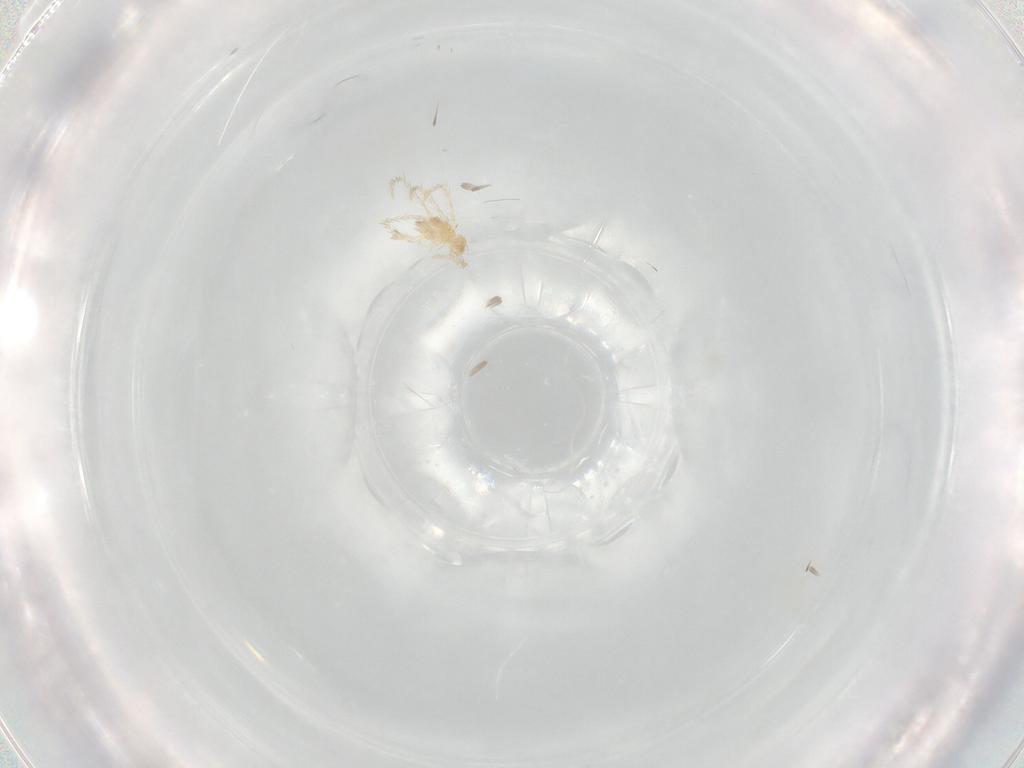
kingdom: Animalia
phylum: Arthropoda
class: Arachnida
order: Trombidiformes
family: Erythraeidae
